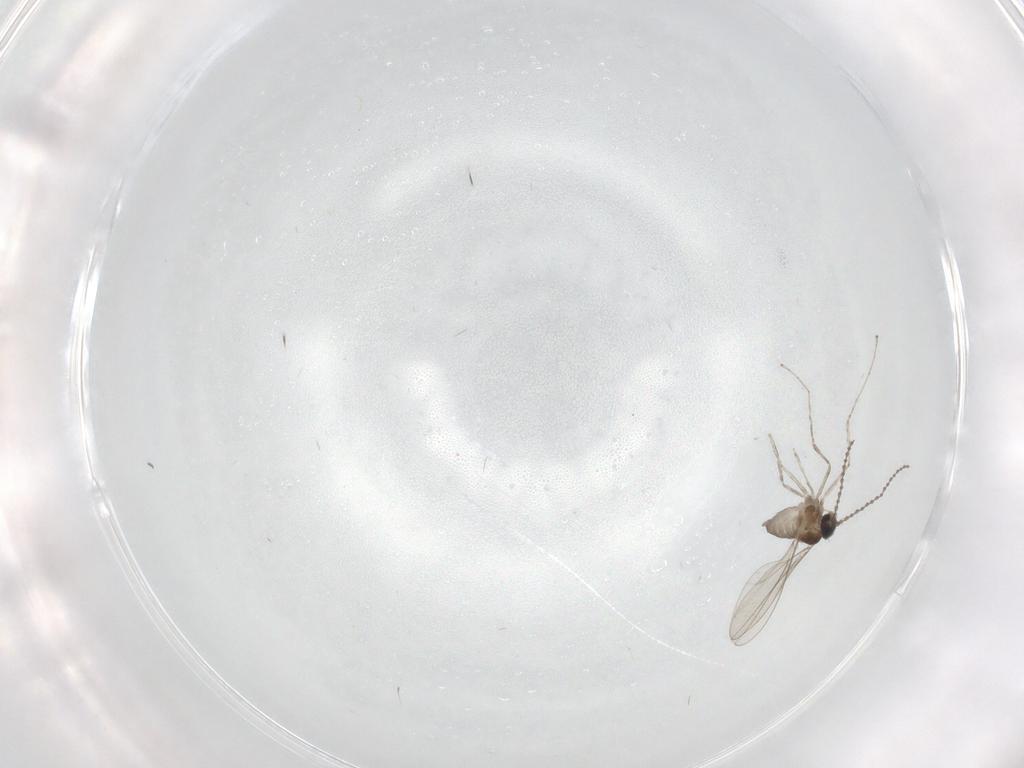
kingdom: Animalia
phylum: Arthropoda
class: Insecta
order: Diptera
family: Cecidomyiidae
